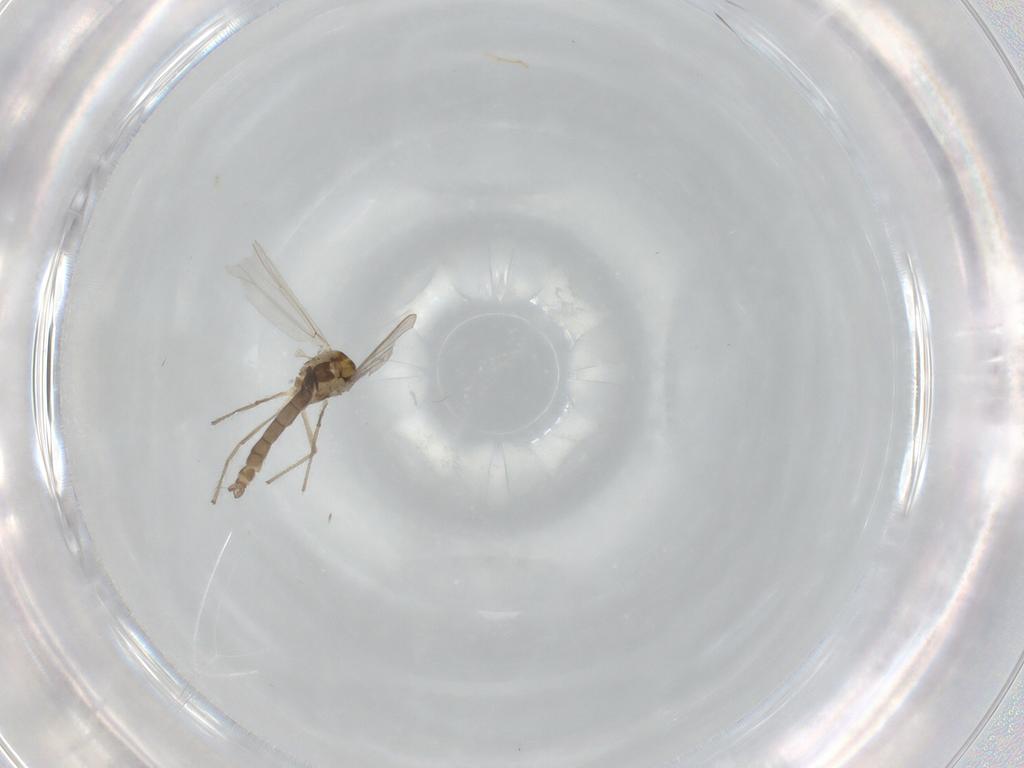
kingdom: Animalia
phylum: Arthropoda
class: Insecta
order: Diptera
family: Chironomidae
